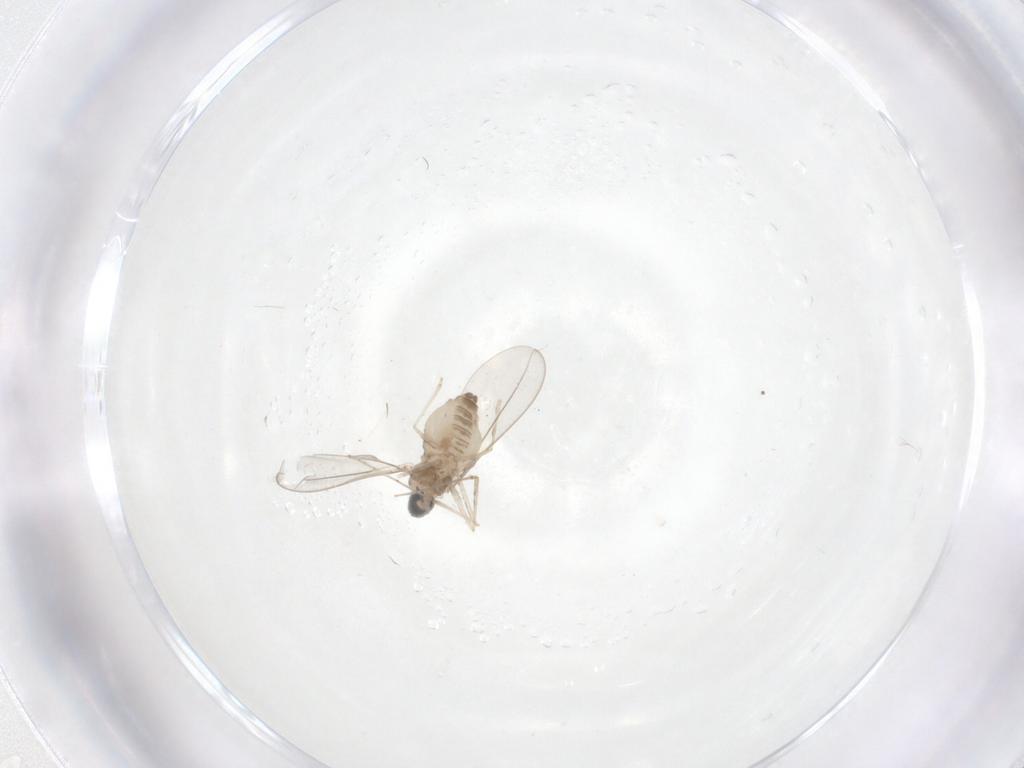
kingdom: Animalia
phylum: Arthropoda
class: Insecta
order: Diptera
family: Cecidomyiidae
